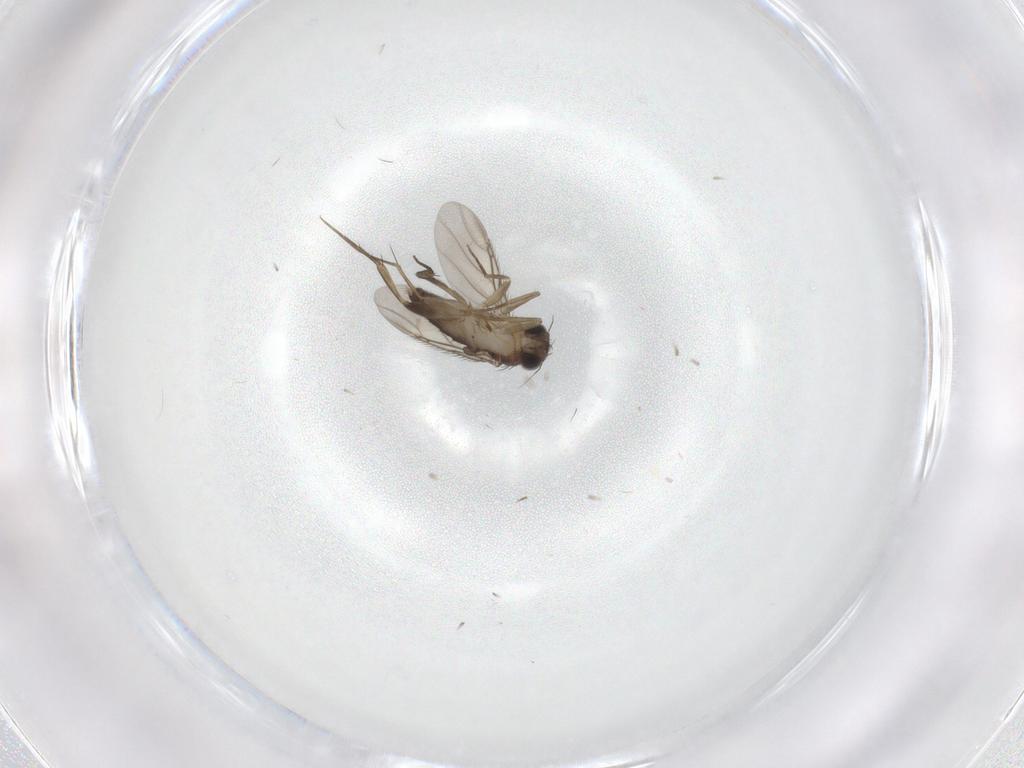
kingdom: Animalia
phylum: Arthropoda
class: Insecta
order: Diptera
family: Phoridae
